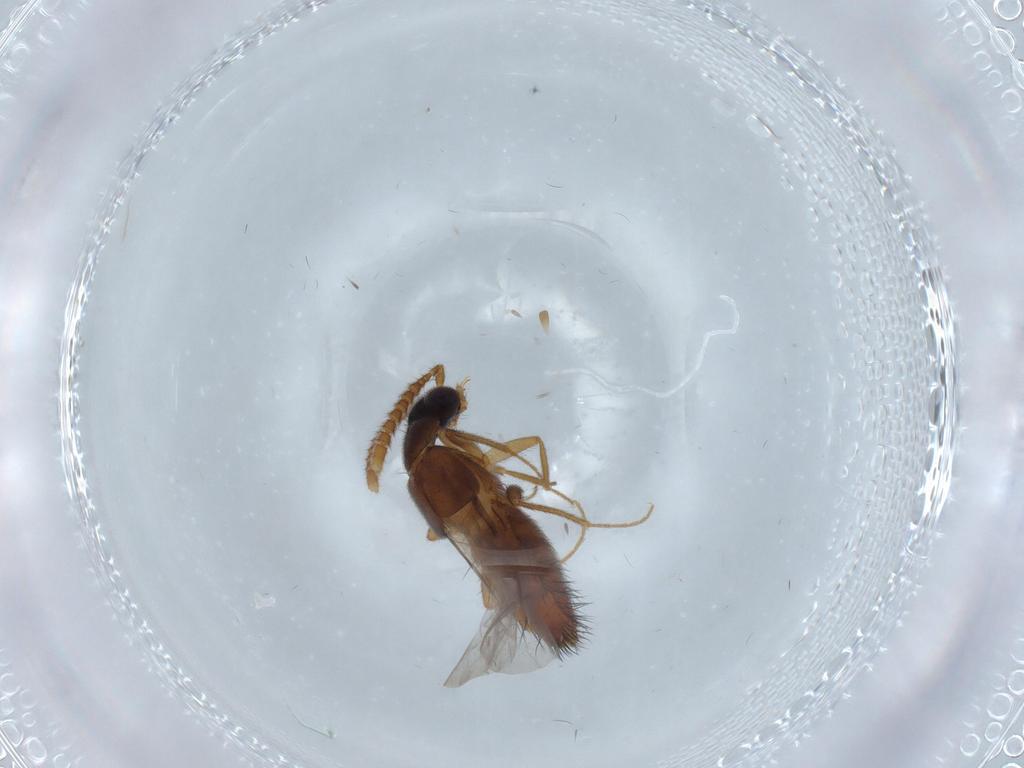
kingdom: Animalia
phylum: Arthropoda
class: Insecta
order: Coleoptera
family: Staphylinidae
